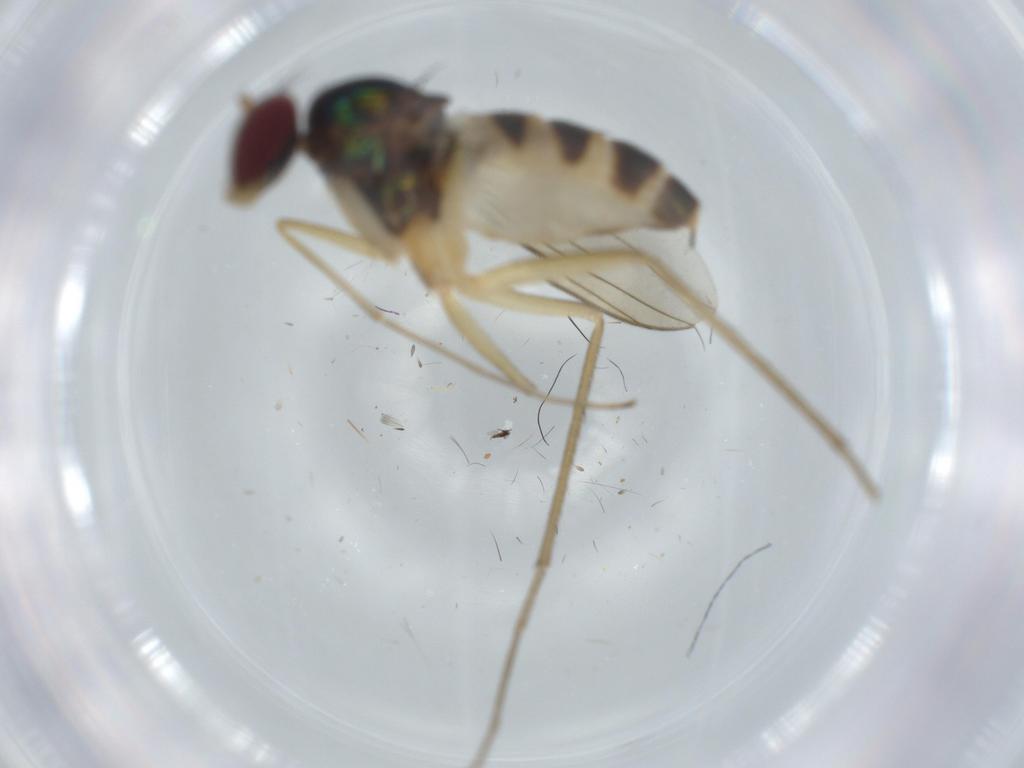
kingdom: Animalia
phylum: Arthropoda
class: Insecta
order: Diptera
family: Dolichopodidae
